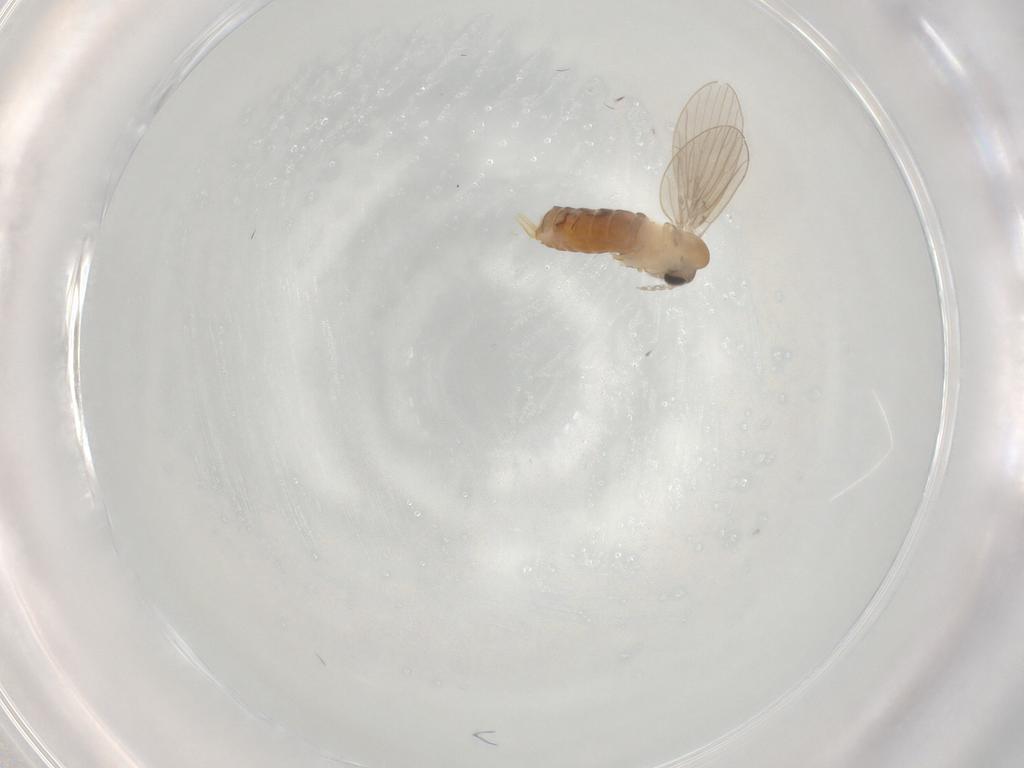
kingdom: Animalia
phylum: Arthropoda
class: Insecta
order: Diptera
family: Psychodidae
